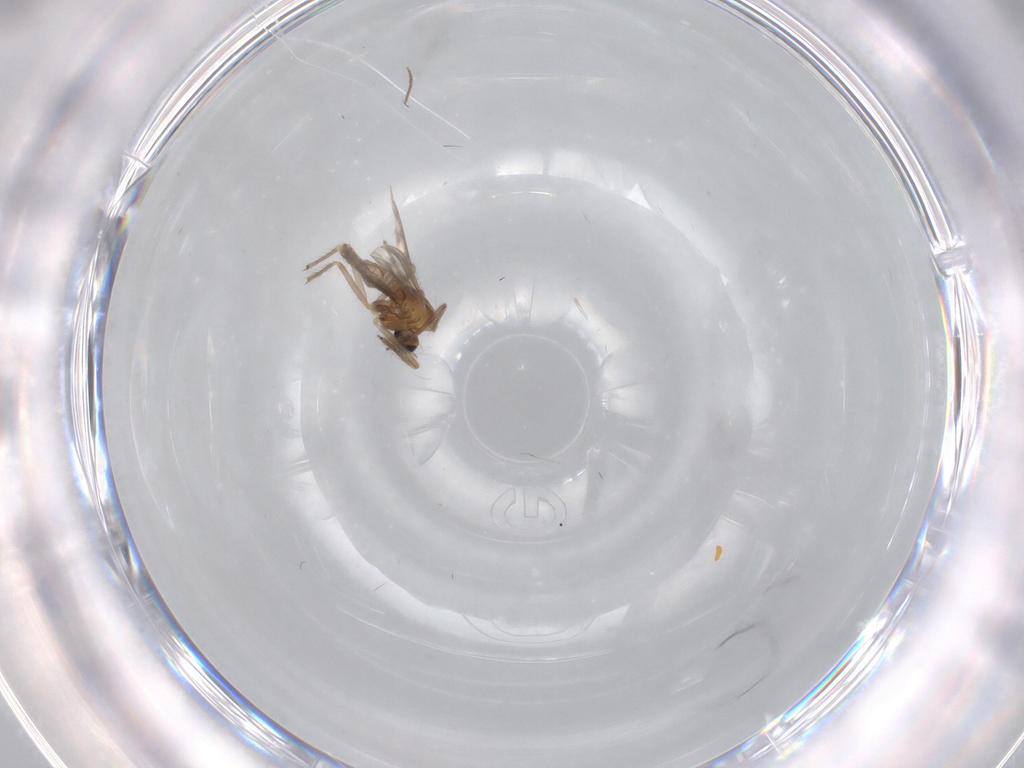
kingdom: Animalia
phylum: Arthropoda
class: Insecta
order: Diptera
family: Chironomidae
